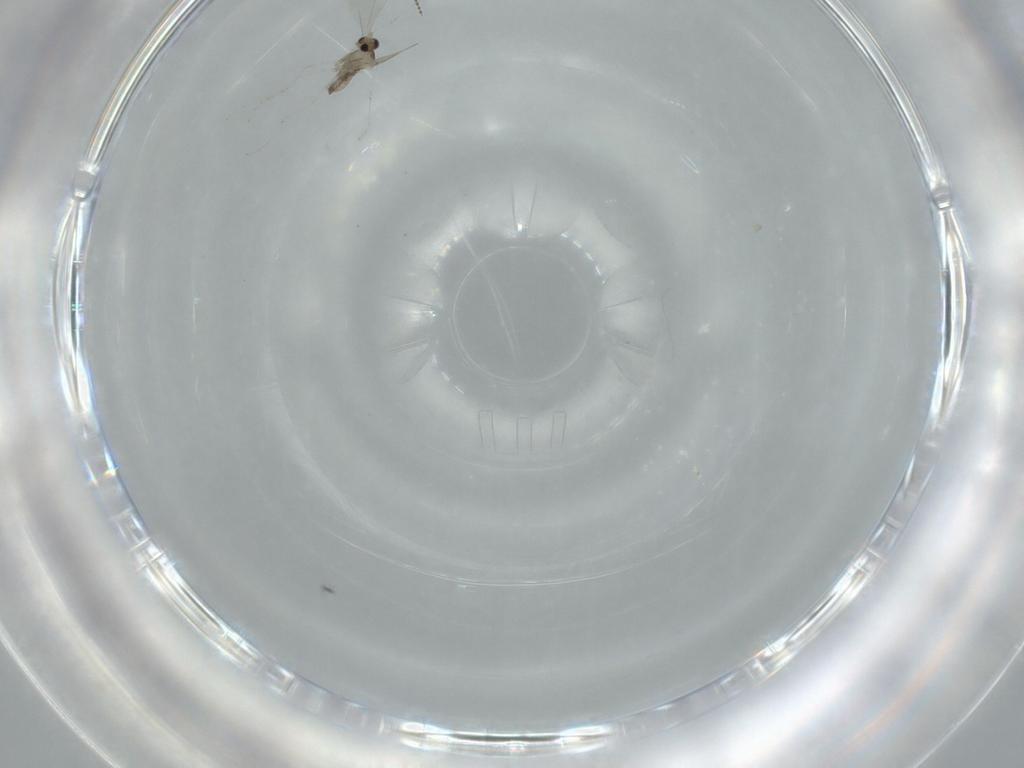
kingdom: Animalia
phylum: Arthropoda
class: Insecta
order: Diptera
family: Cecidomyiidae
